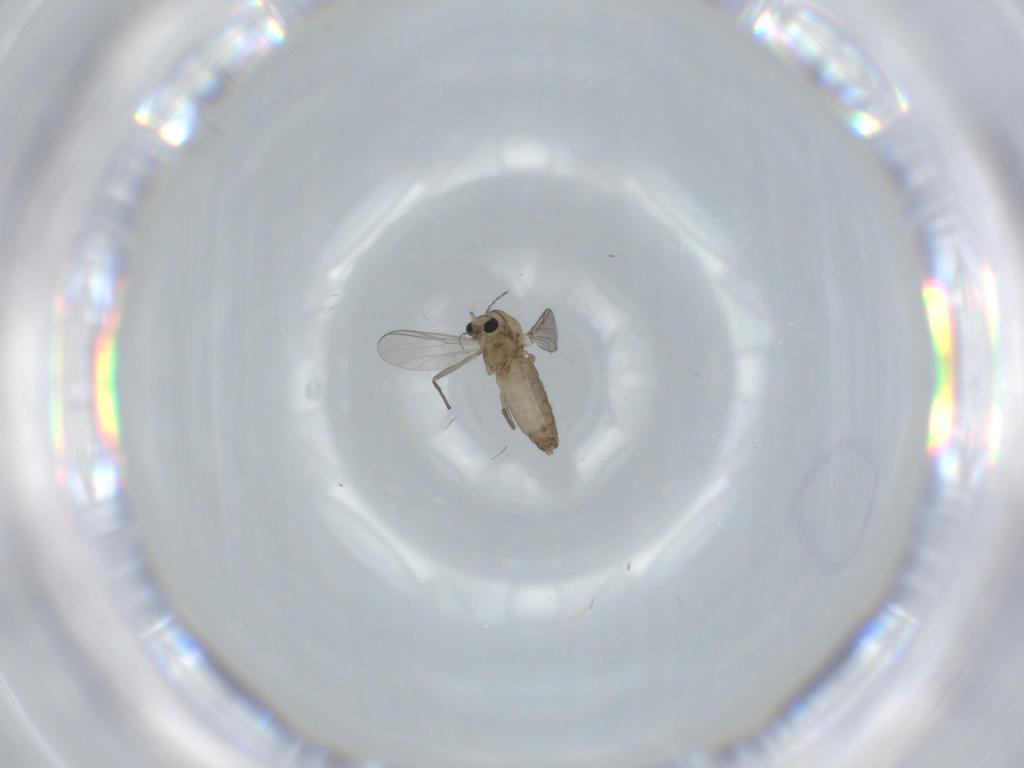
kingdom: Animalia
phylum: Arthropoda
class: Insecta
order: Diptera
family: Chironomidae
